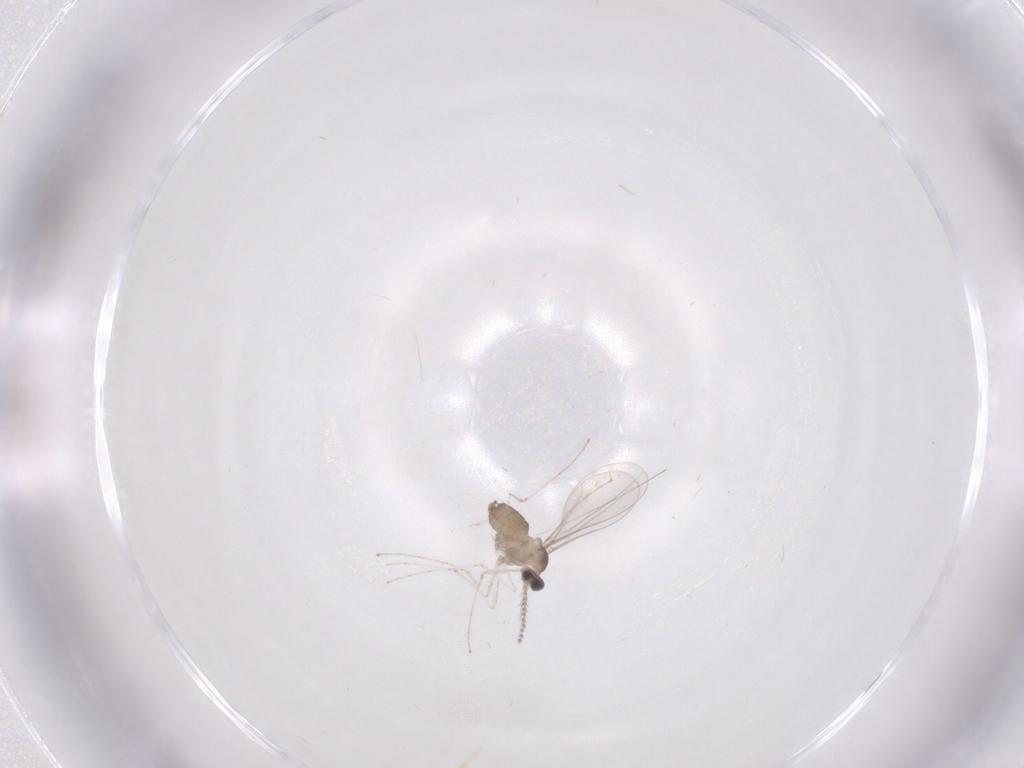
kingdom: Animalia
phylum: Arthropoda
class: Insecta
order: Diptera
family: Cecidomyiidae
